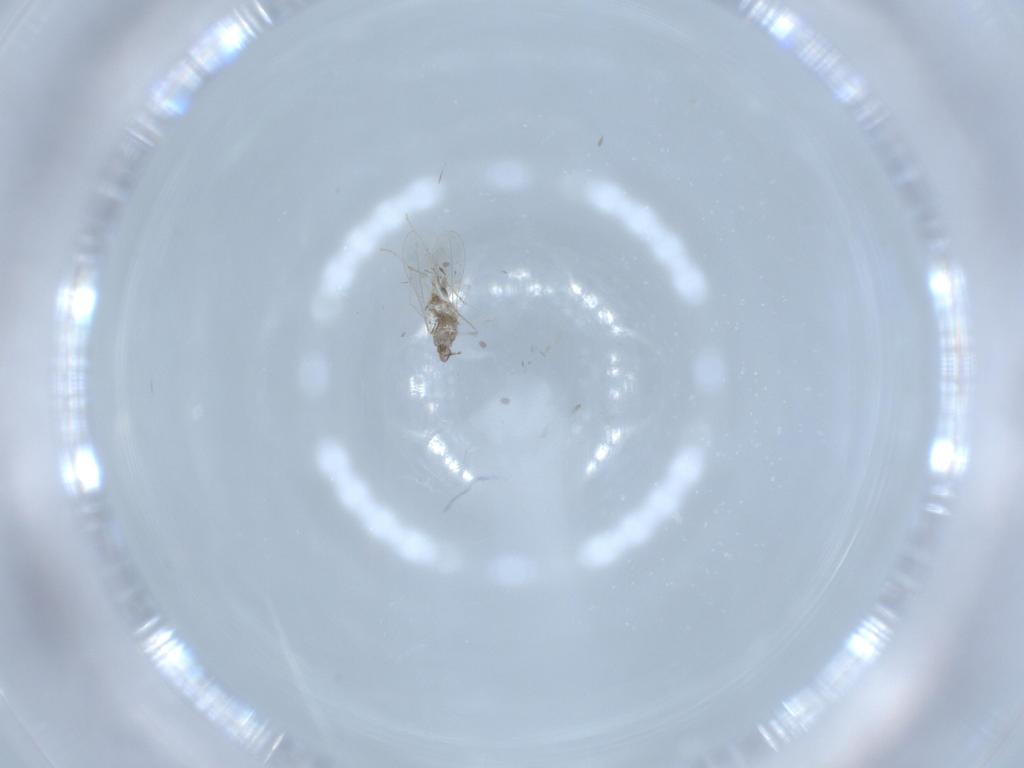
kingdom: Animalia
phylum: Arthropoda
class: Insecta
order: Diptera
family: Cecidomyiidae
